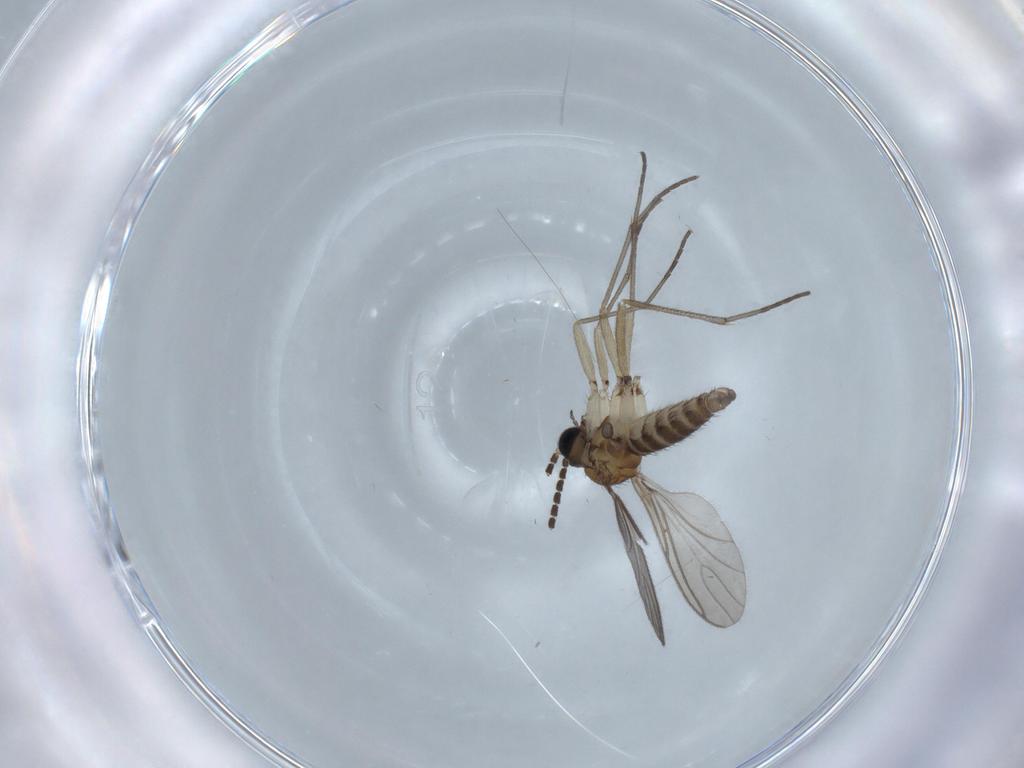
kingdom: Animalia
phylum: Arthropoda
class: Insecta
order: Diptera
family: Sciaridae
